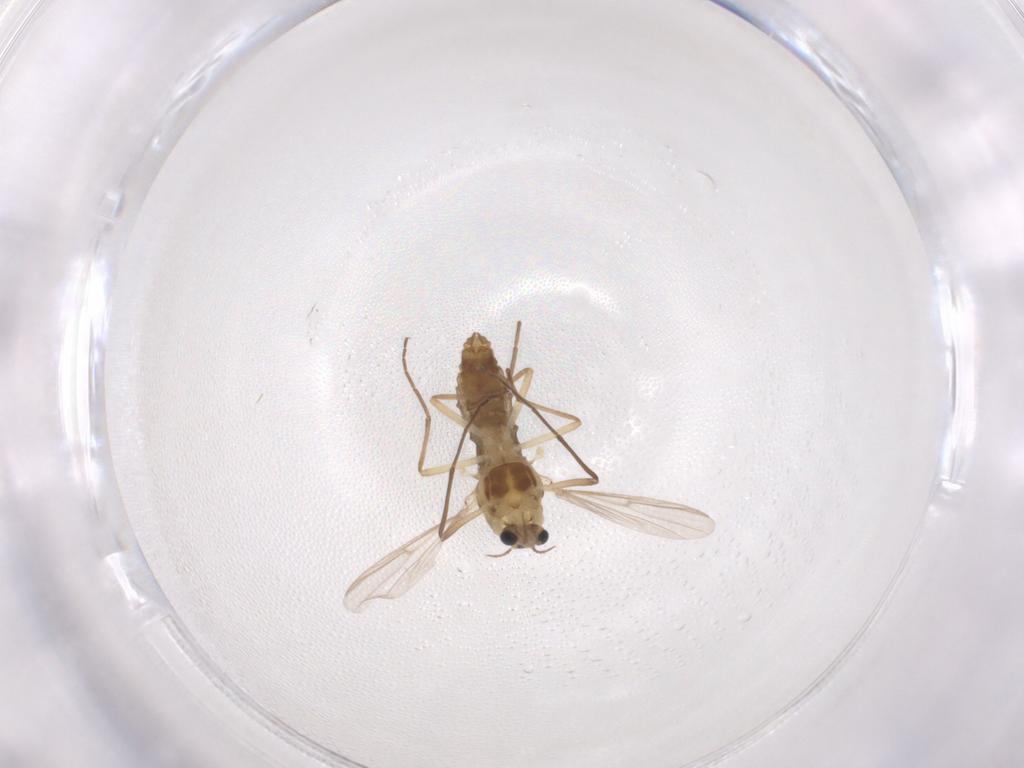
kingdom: Animalia
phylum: Arthropoda
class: Insecta
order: Diptera
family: Chironomidae
